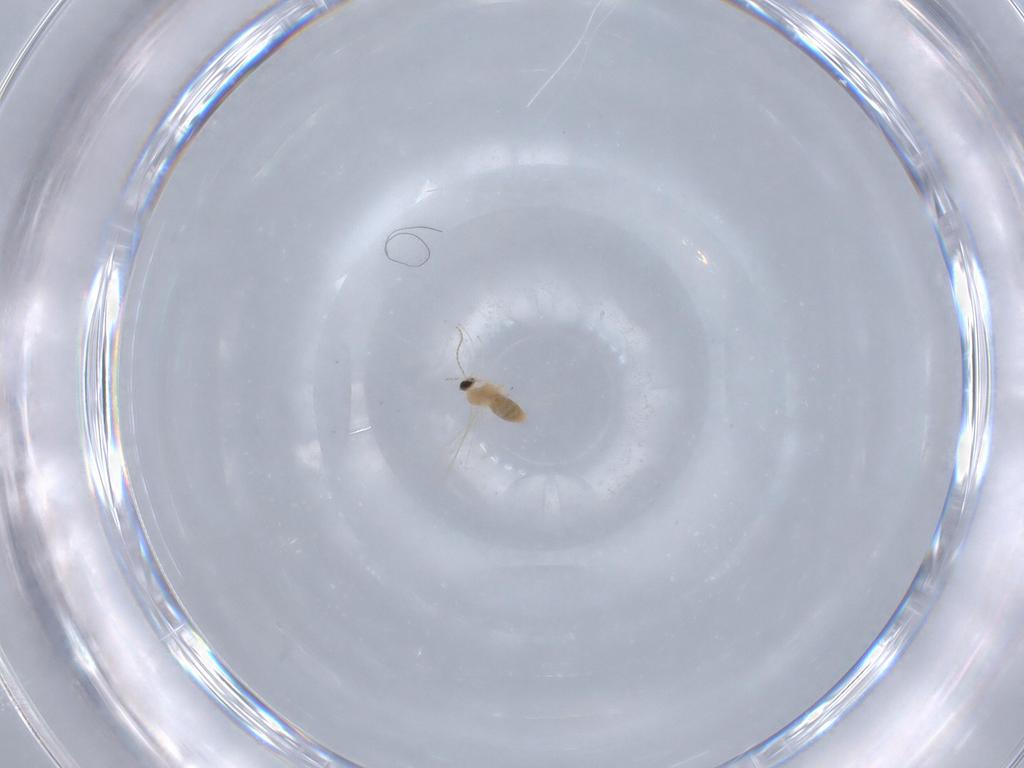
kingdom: Animalia
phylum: Arthropoda
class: Insecta
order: Diptera
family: Cecidomyiidae
